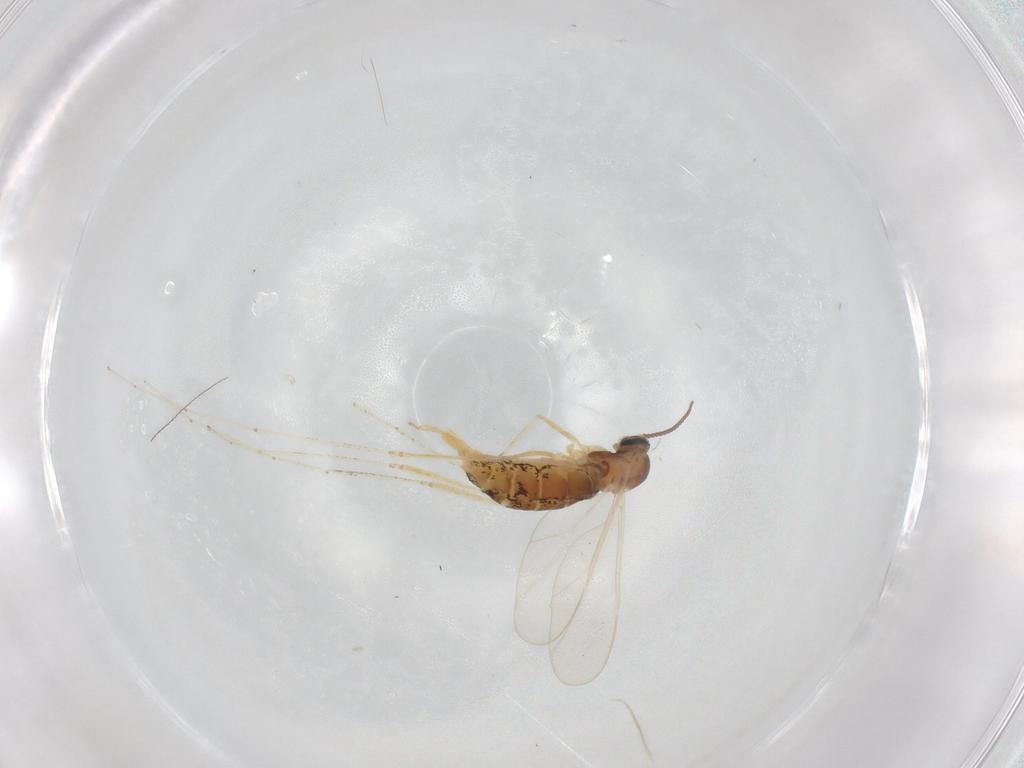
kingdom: Animalia
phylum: Arthropoda
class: Insecta
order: Diptera
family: Cecidomyiidae
